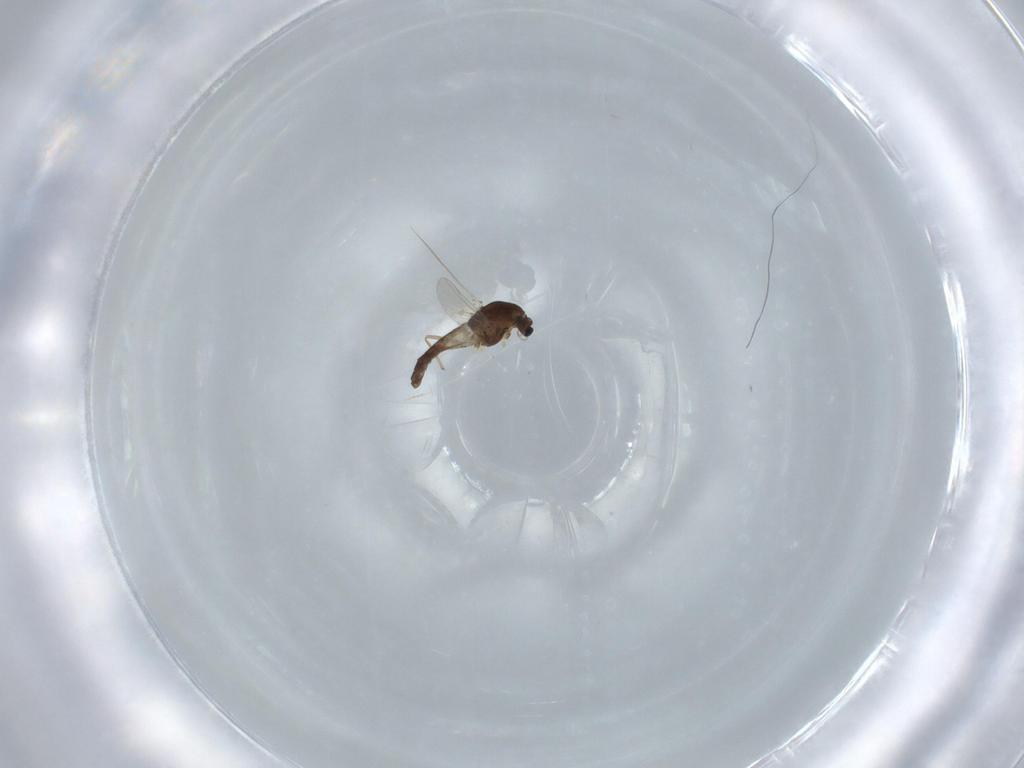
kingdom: Animalia
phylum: Arthropoda
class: Insecta
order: Diptera
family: Chironomidae
